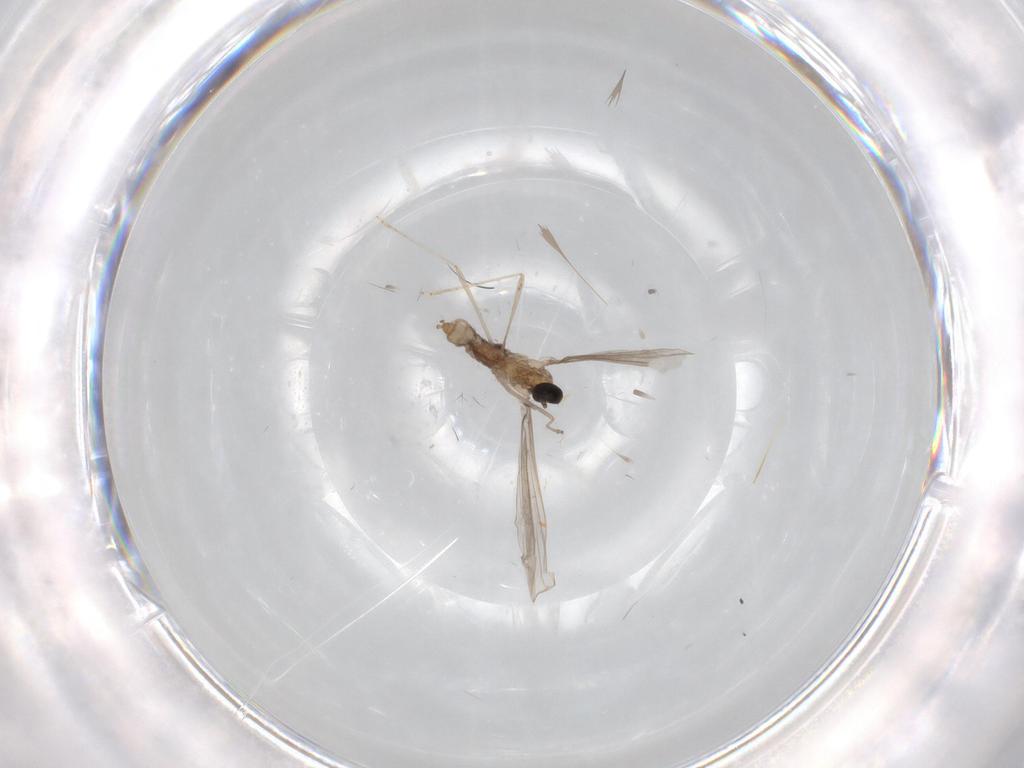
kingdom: Animalia
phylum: Arthropoda
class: Insecta
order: Diptera
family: Cecidomyiidae
